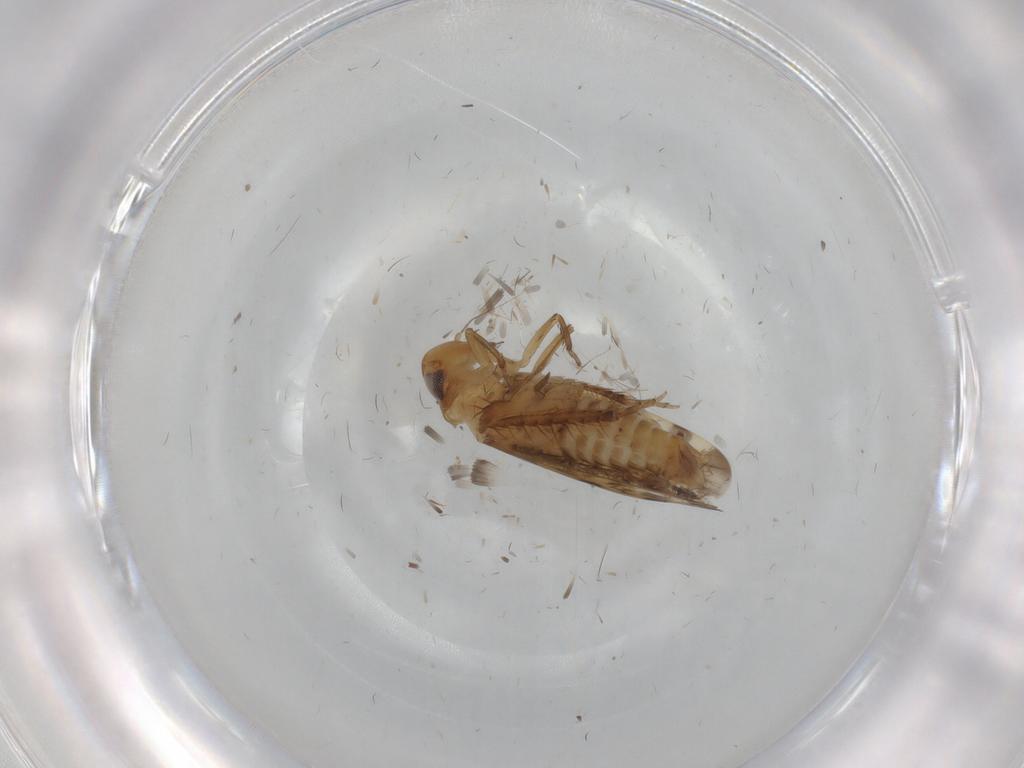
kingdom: Animalia
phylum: Arthropoda
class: Insecta
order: Hemiptera
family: Cicadellidae
